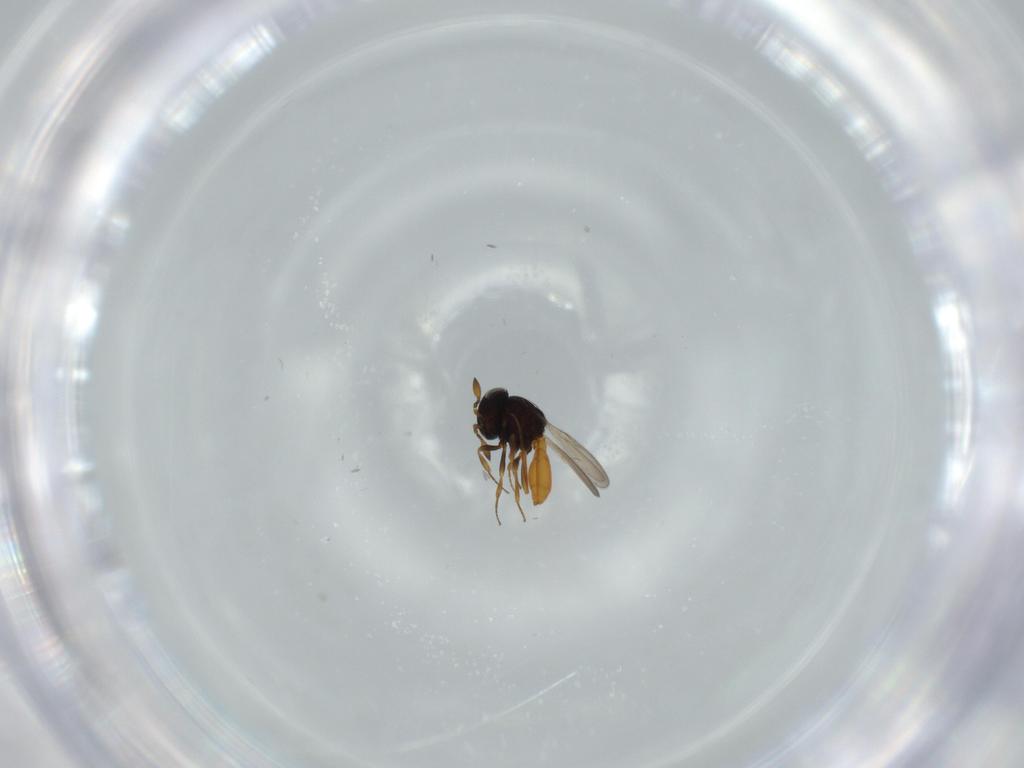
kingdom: Animalia
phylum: Arthropoda
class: Insecta
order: Hymenoptera
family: Scelionidae
